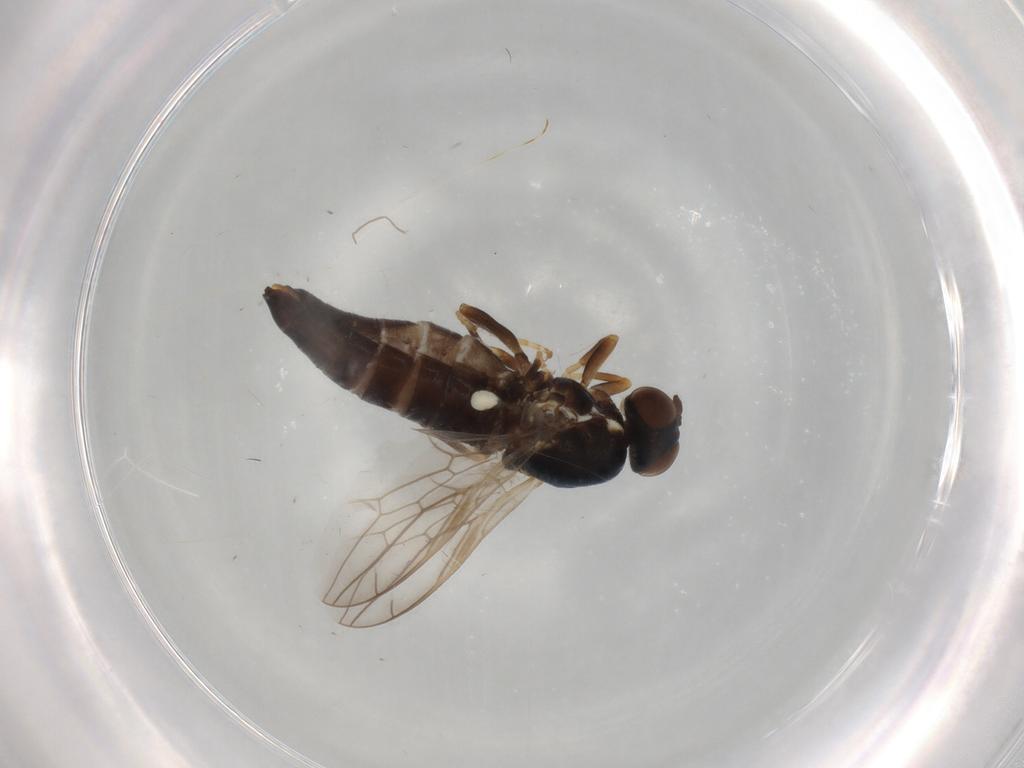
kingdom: Animalia
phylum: Arthropoda
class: Insecta
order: Diptera
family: Scenopinidae
